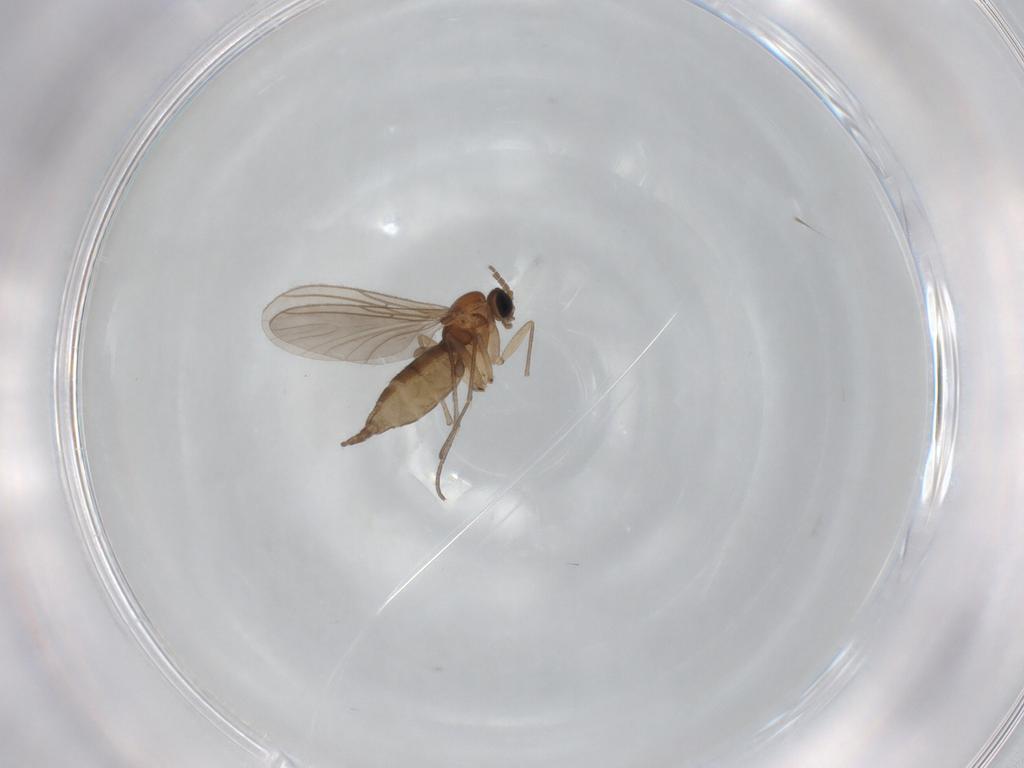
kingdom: Animalia
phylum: Arthropoda
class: Insecta
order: Diptera
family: Sciaridae
